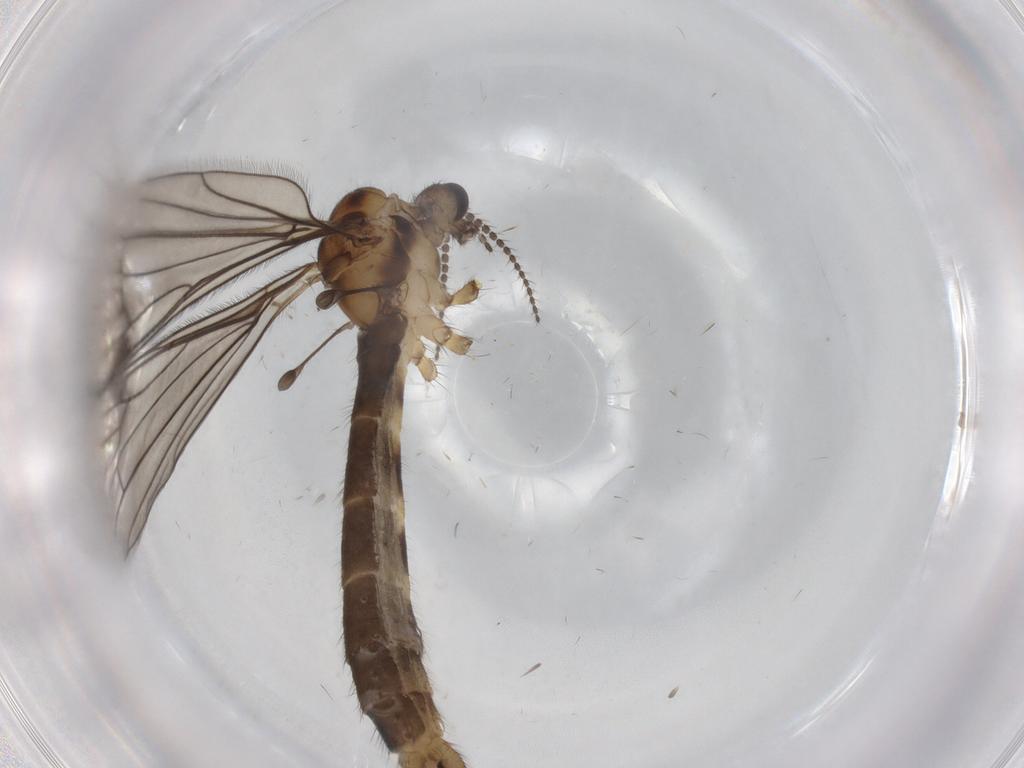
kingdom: Animalia
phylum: Arthropoda
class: Insecta
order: Diptera
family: Limoniidae
